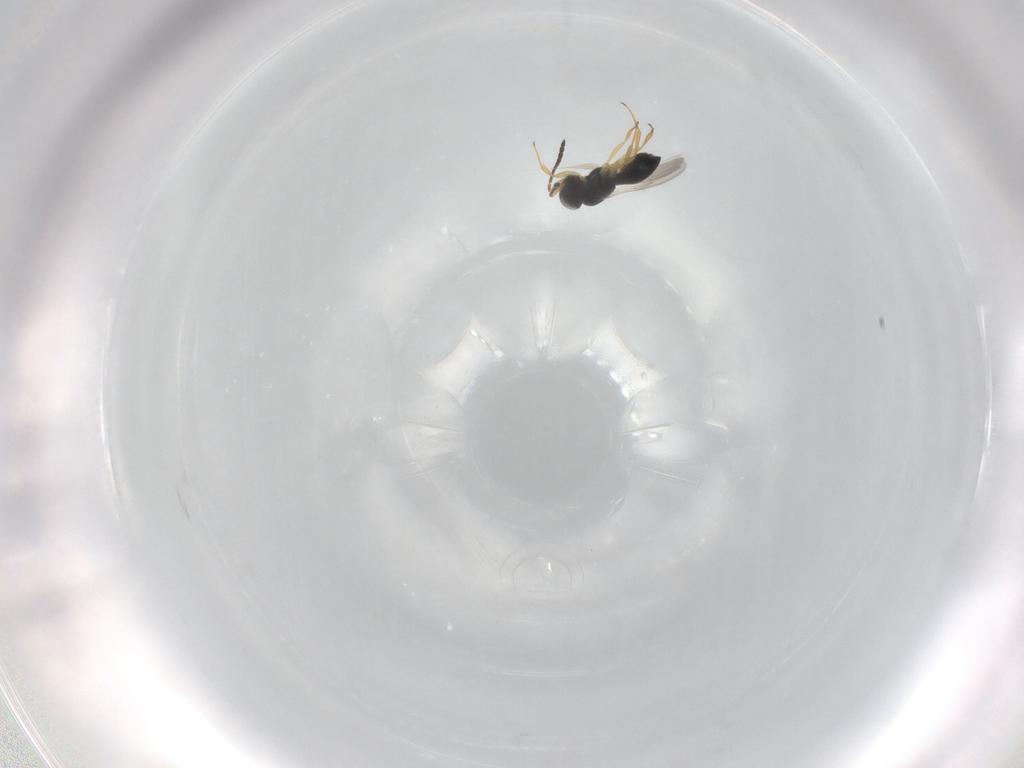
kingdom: Animalia
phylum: Arthropoda
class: Insecta
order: Hymenoptera
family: Scelionidae
